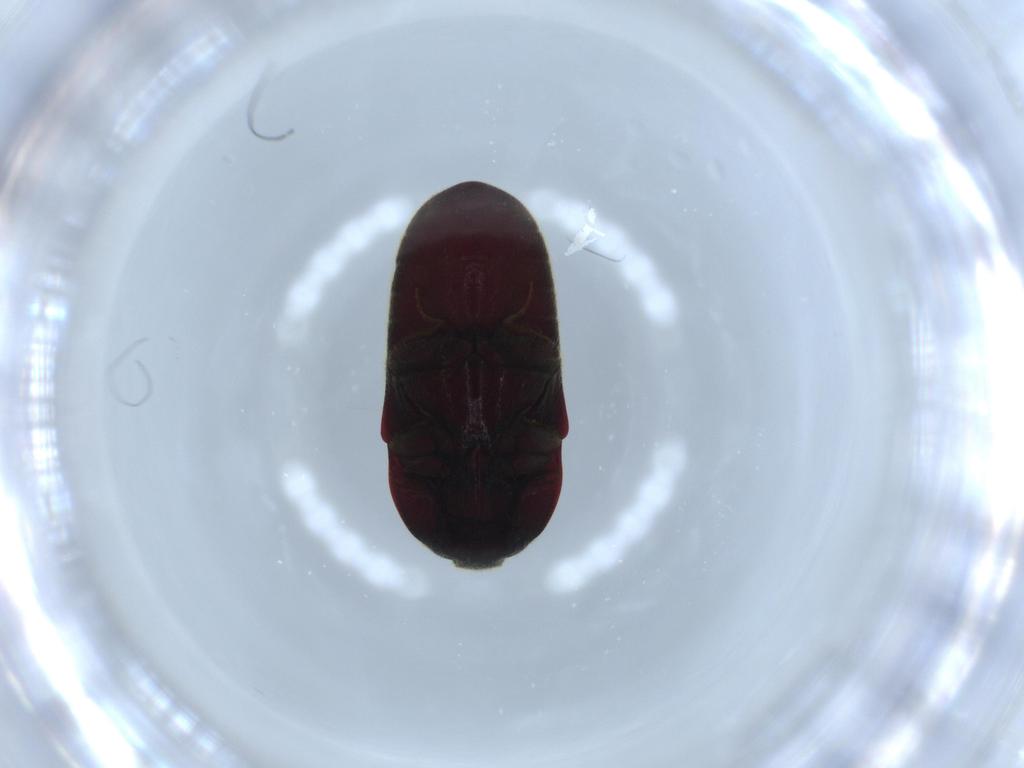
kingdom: Animalia
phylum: Arthropoda
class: Insecta
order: Coleoptera
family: Throscidae
